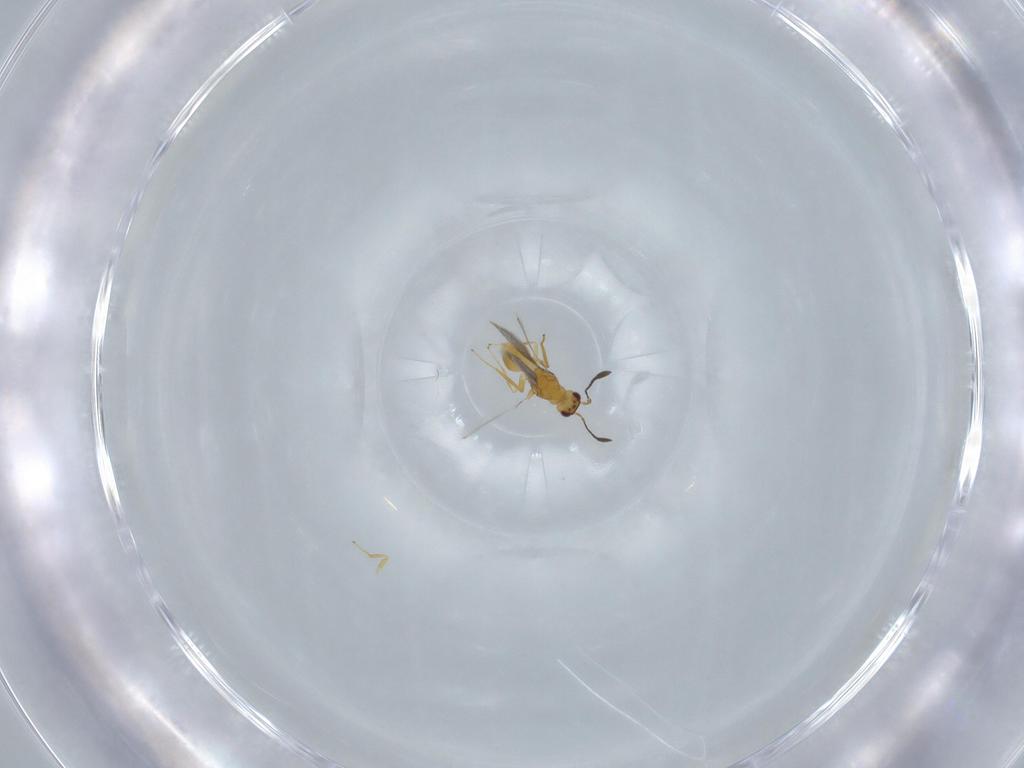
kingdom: Animalia
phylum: Arthropoda
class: Insecta
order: Hymenoptera
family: Mymaridae
